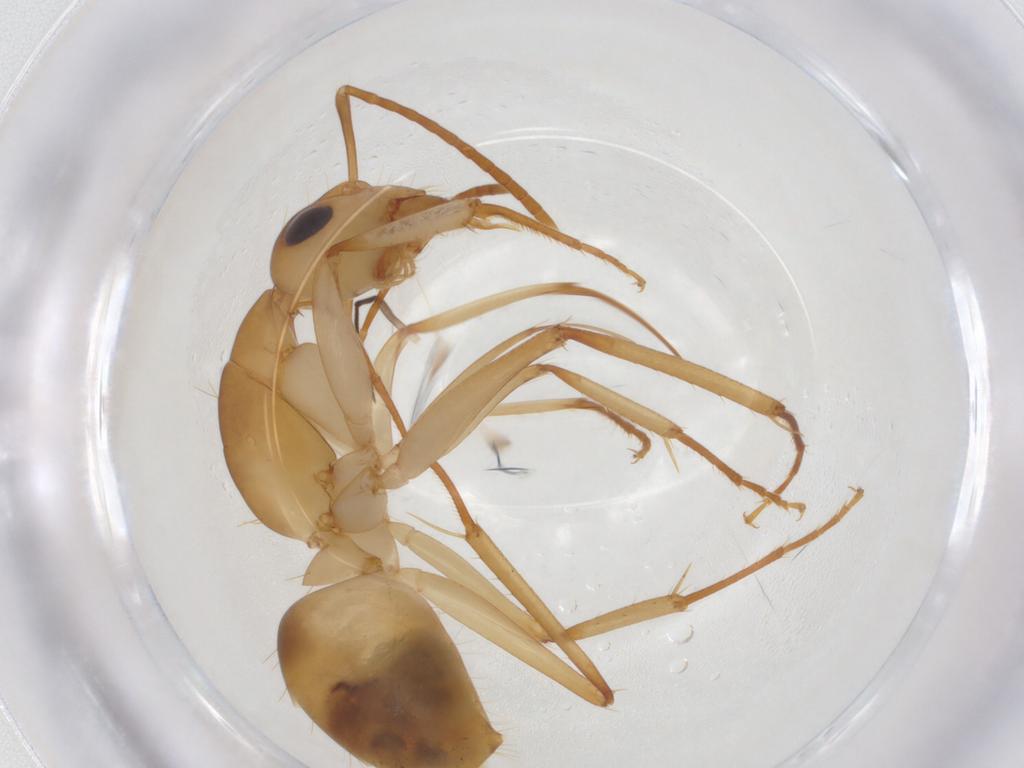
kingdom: Animalia
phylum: Arthropoda
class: Insecta
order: Hymenoptera
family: Formicidae
